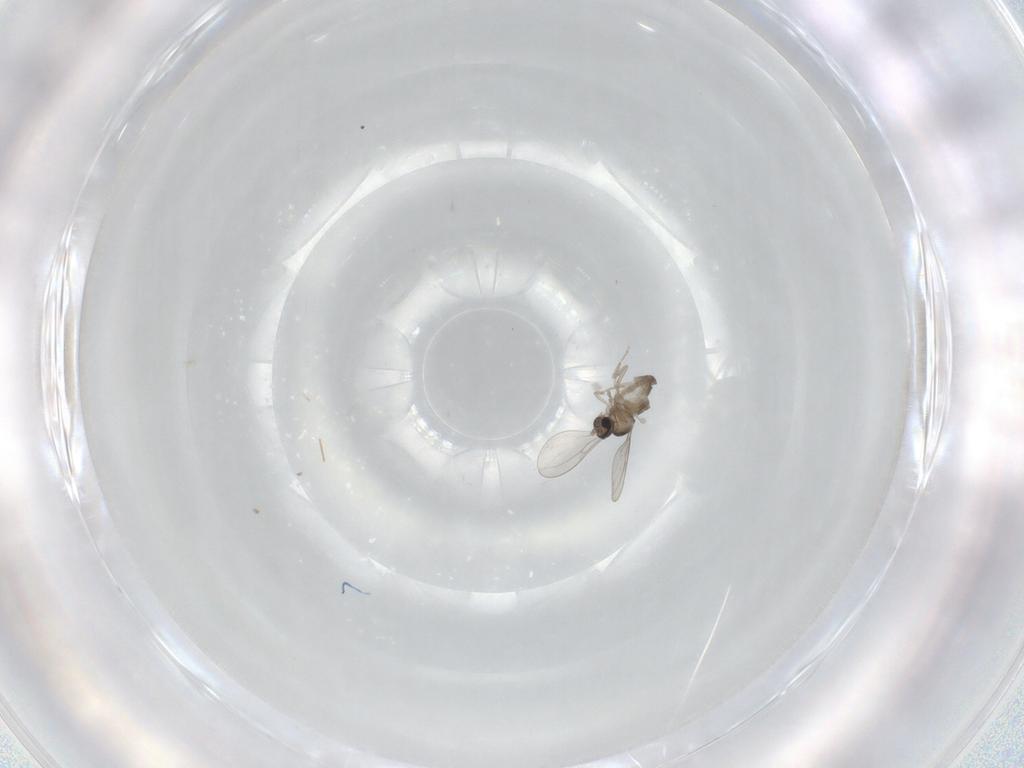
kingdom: Animalia
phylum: Arthropoda
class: Insecta
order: Diptera
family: Cecidomyiidae
